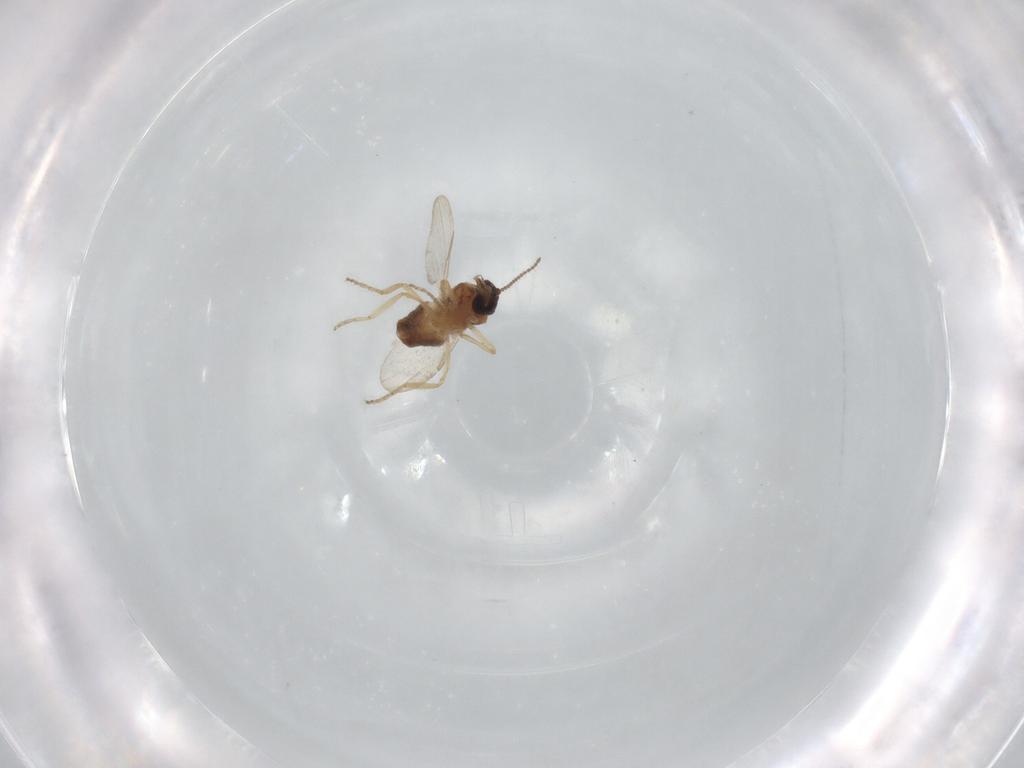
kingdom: Animalia
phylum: Arthropoda
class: Insecta
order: Diptera
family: Ceratopogonidae
